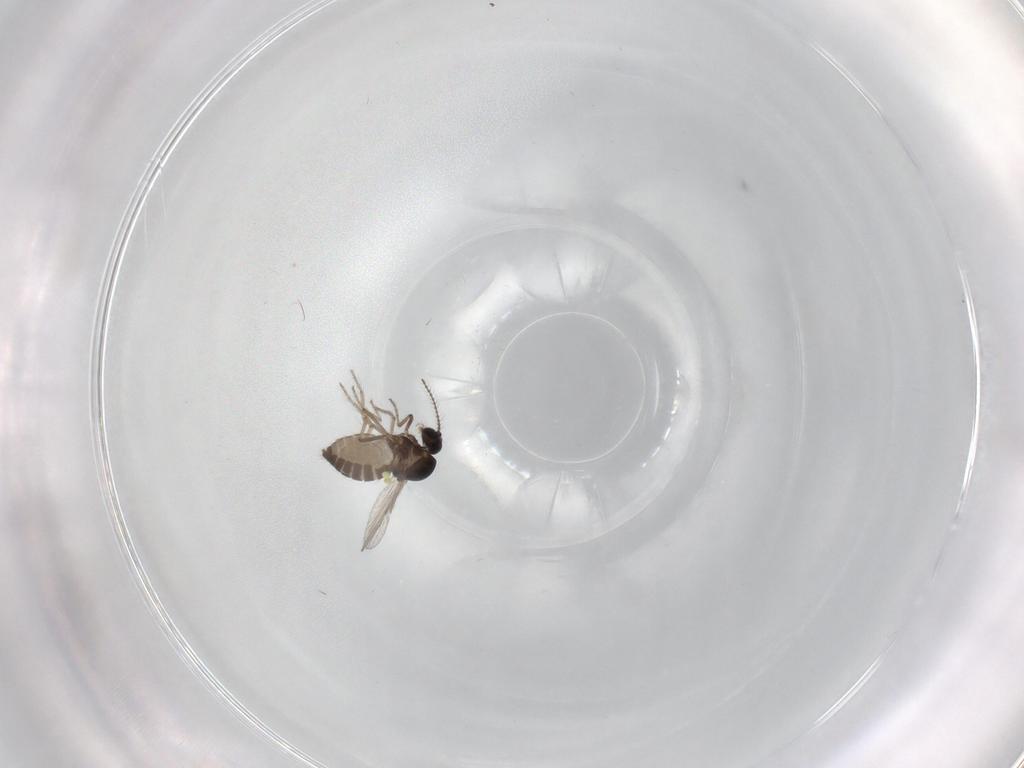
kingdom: Animalia
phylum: Arthropoda
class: Insecta
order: Diptera
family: Ceratopogonidae
